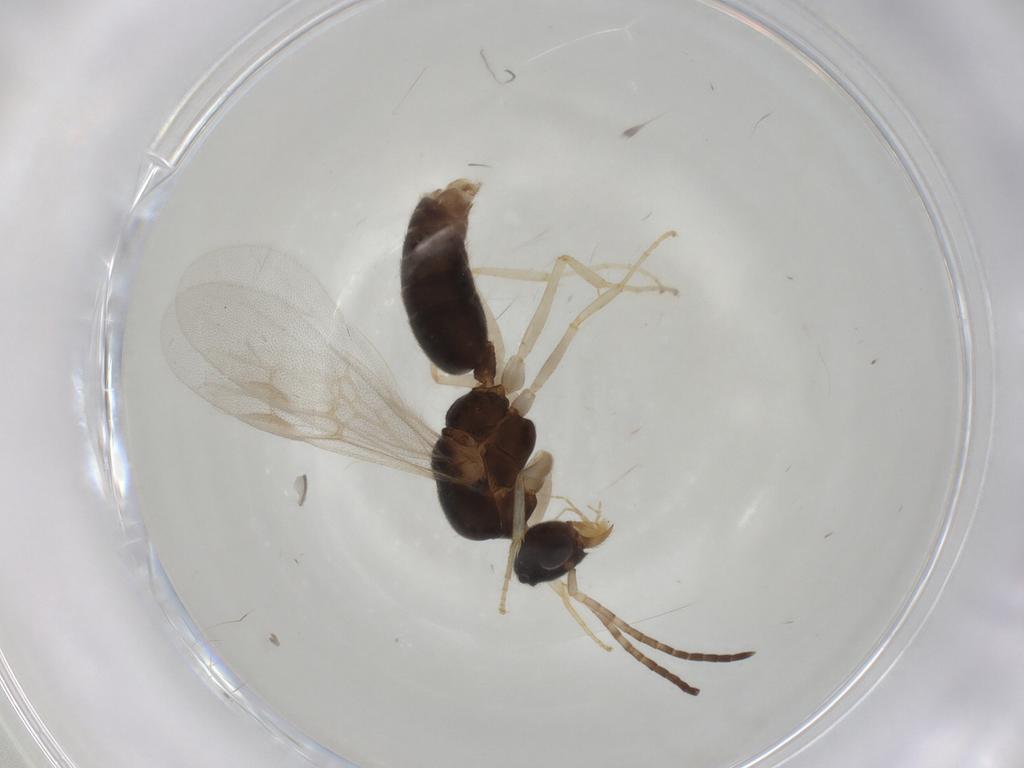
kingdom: Animalia
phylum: Arthropoda
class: Insecta
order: Hymenoptera
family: Formicidae
